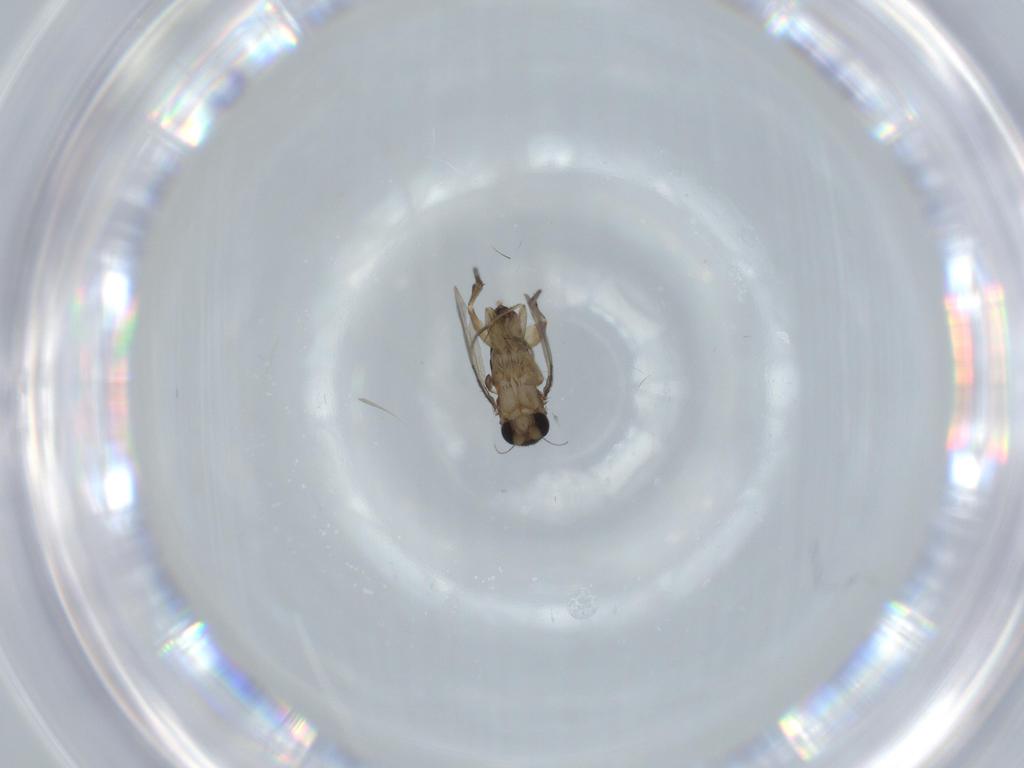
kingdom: Animalia
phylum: Arthropoda
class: Insecta
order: Diptera
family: Phoridae
